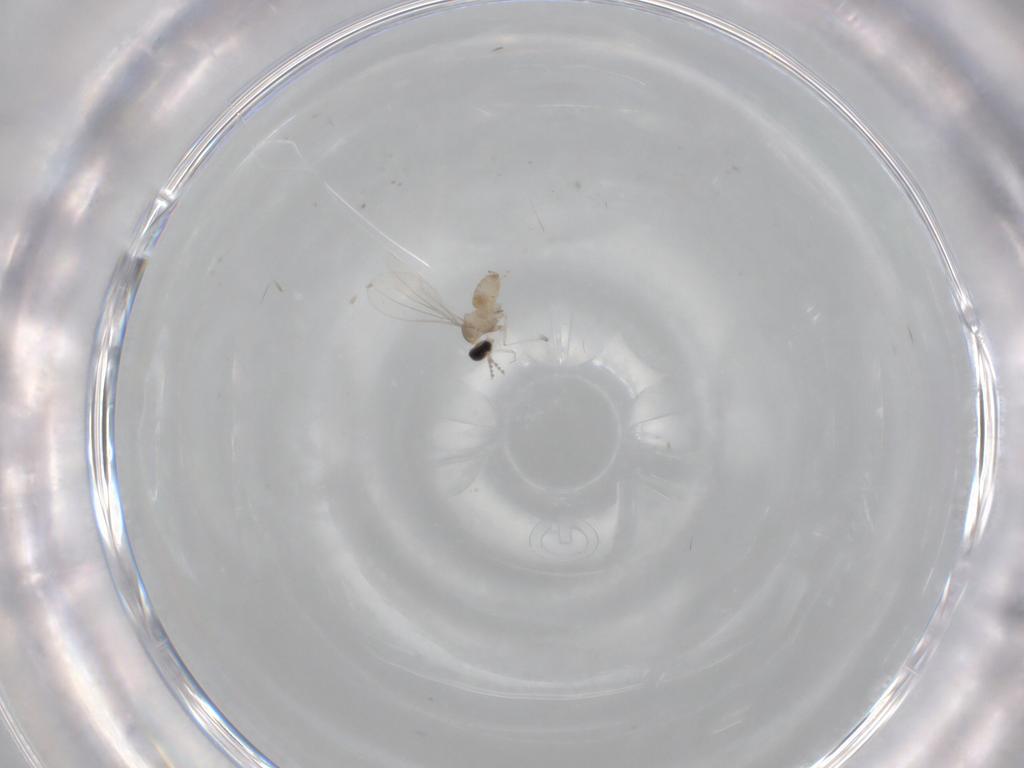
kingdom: Animalia
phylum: Arthropoda
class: Insecta
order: Diptera
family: Cecidomyiidae
